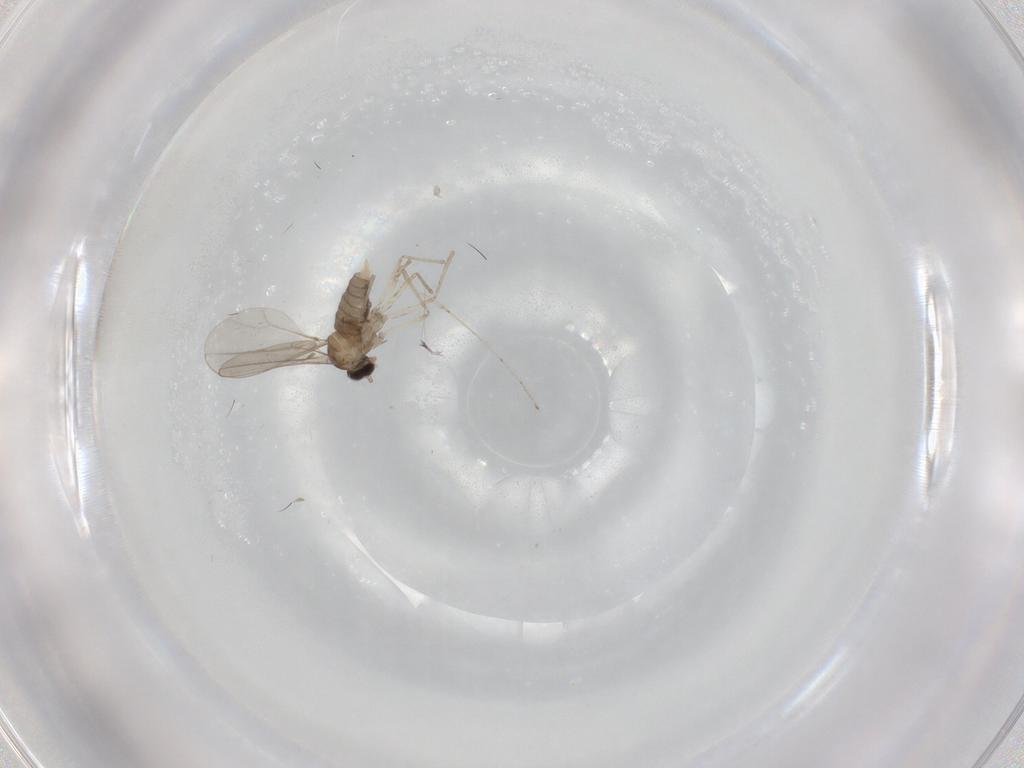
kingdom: Animalia
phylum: Arthropoda
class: Insecta
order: Diptera
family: Cecidomyiidae
